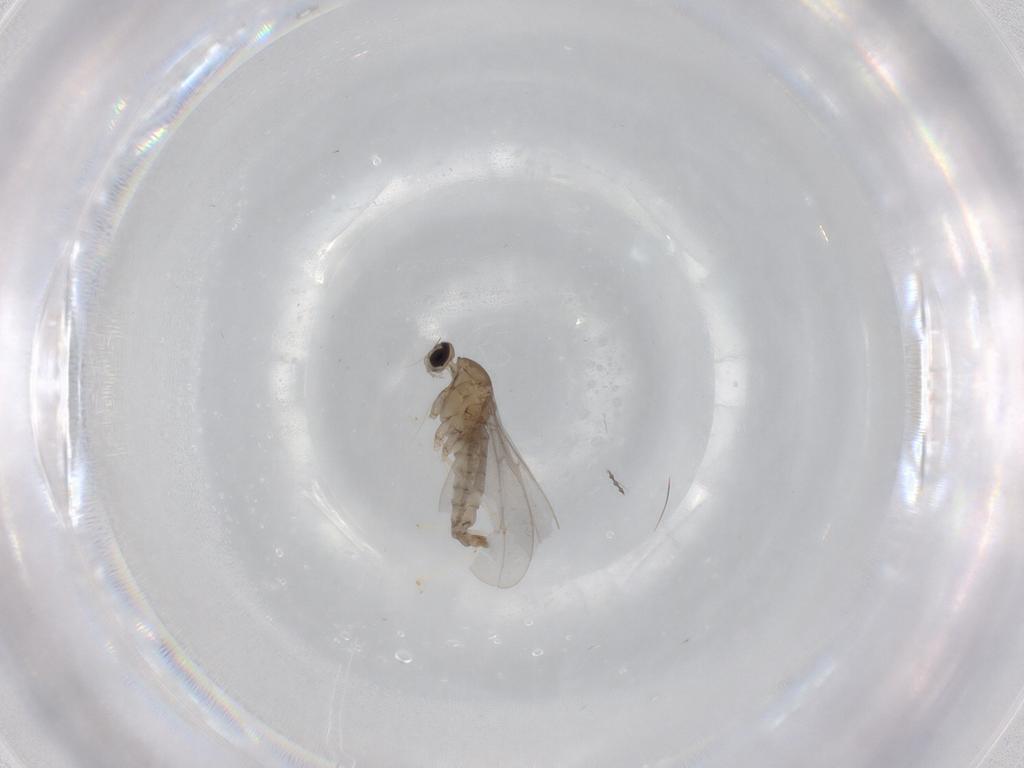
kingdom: Animalia
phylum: Arthropoda
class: Insecta
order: Diptera
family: Cecidomyiidae
